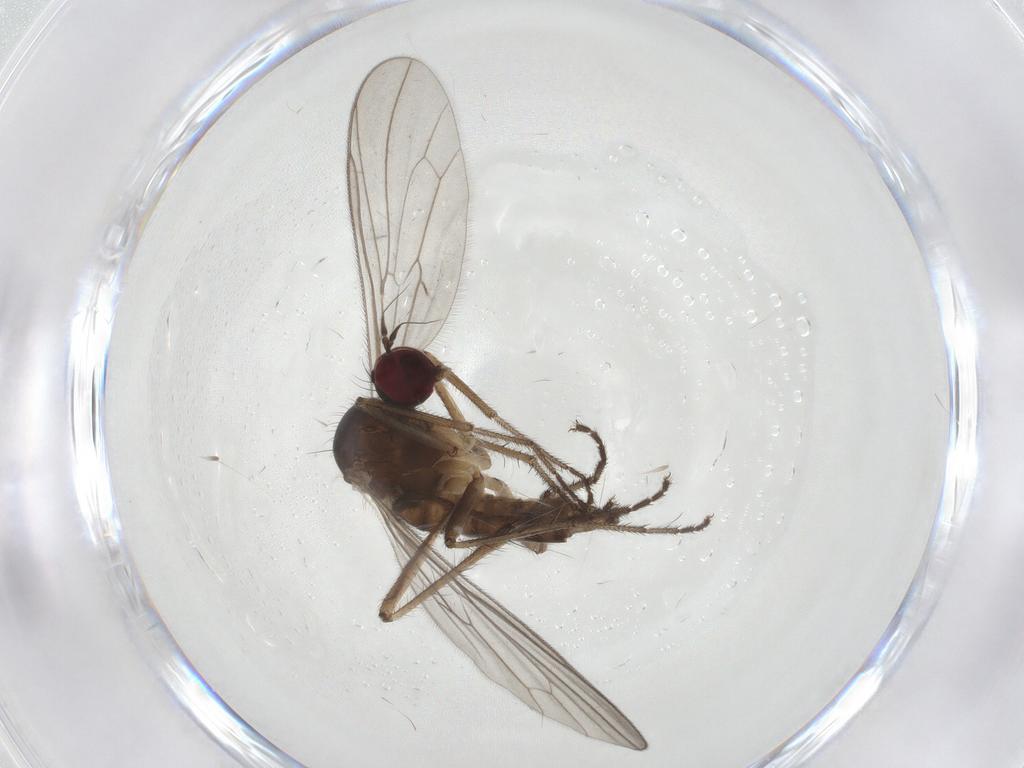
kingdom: Animalia
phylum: Arthropoda
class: Insecta
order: Diptera
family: Hybotidae
